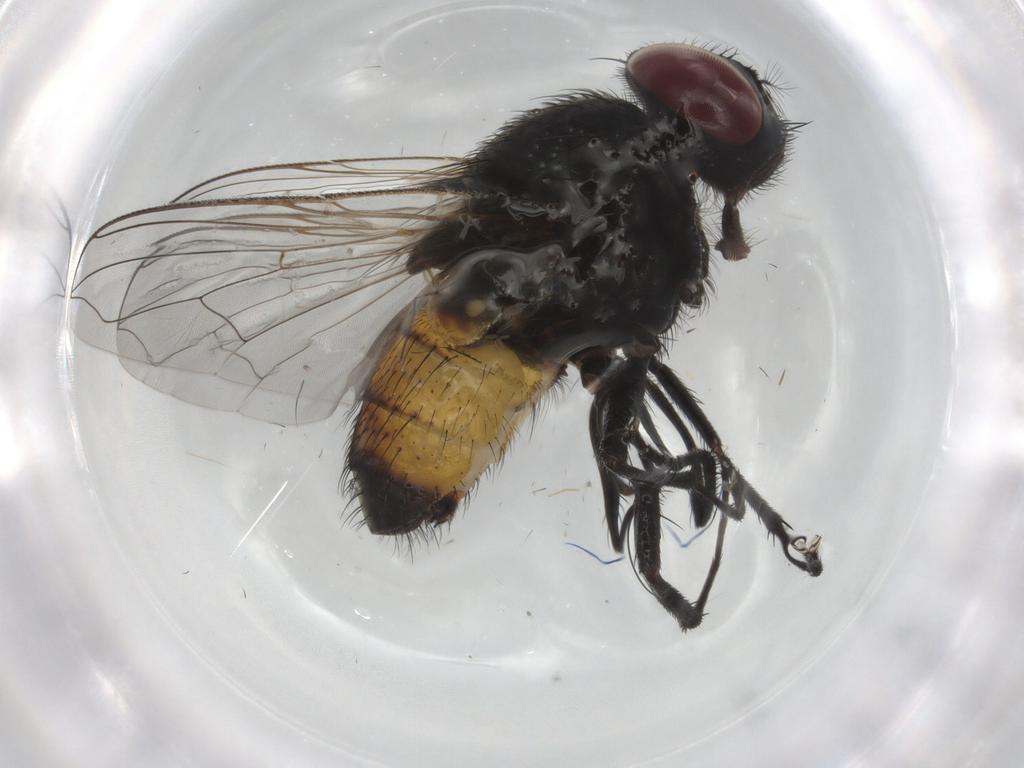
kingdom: Animalia
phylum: Arthropoda
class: Insecta
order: Diptera
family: Muscidae
